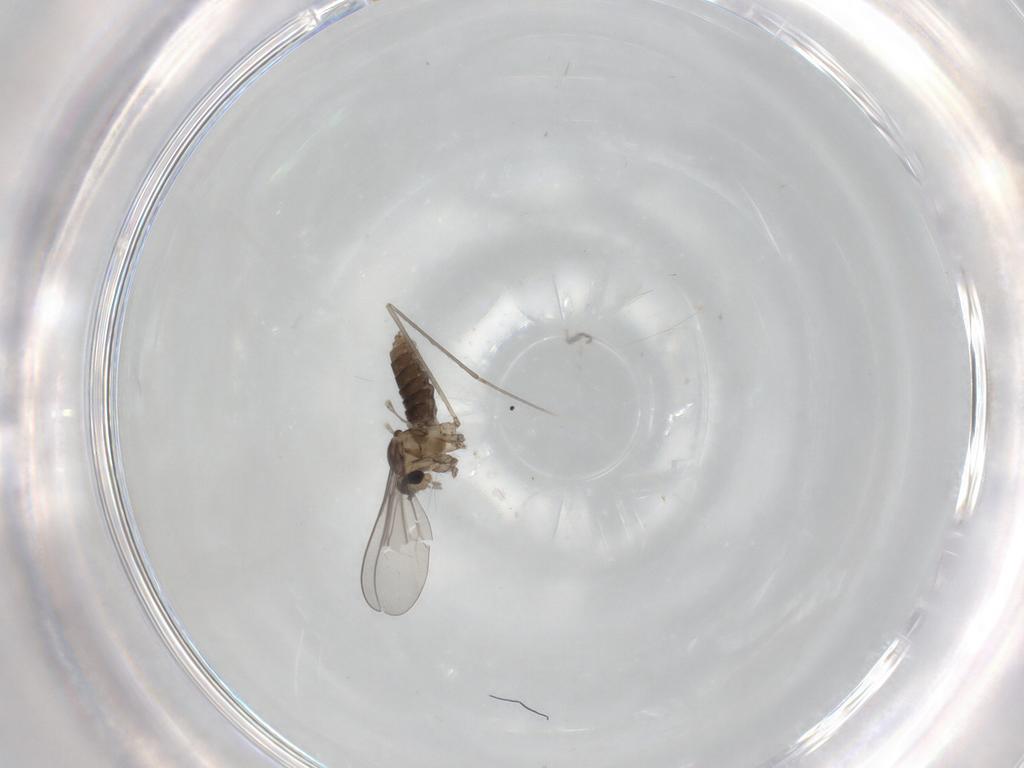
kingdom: Animalia
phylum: Arthropoda
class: Insecta
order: Diptera
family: Cecidomyiidae
